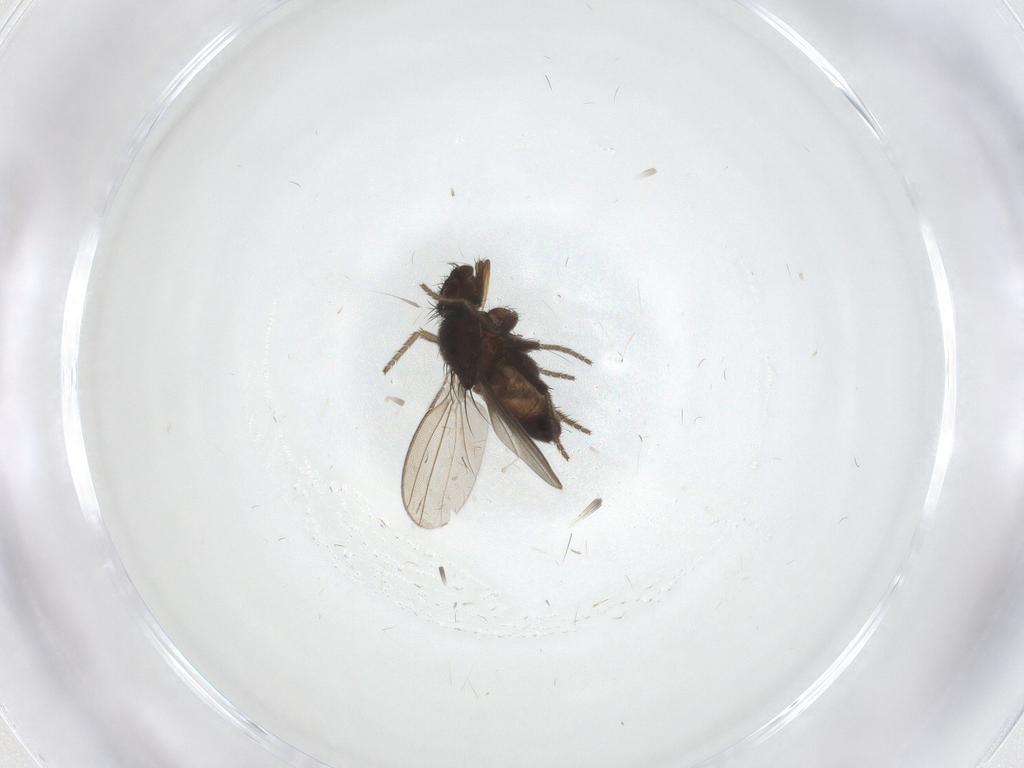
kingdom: Animalia
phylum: Arthropoda
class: Insecta
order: Diptera
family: Milichiidae
